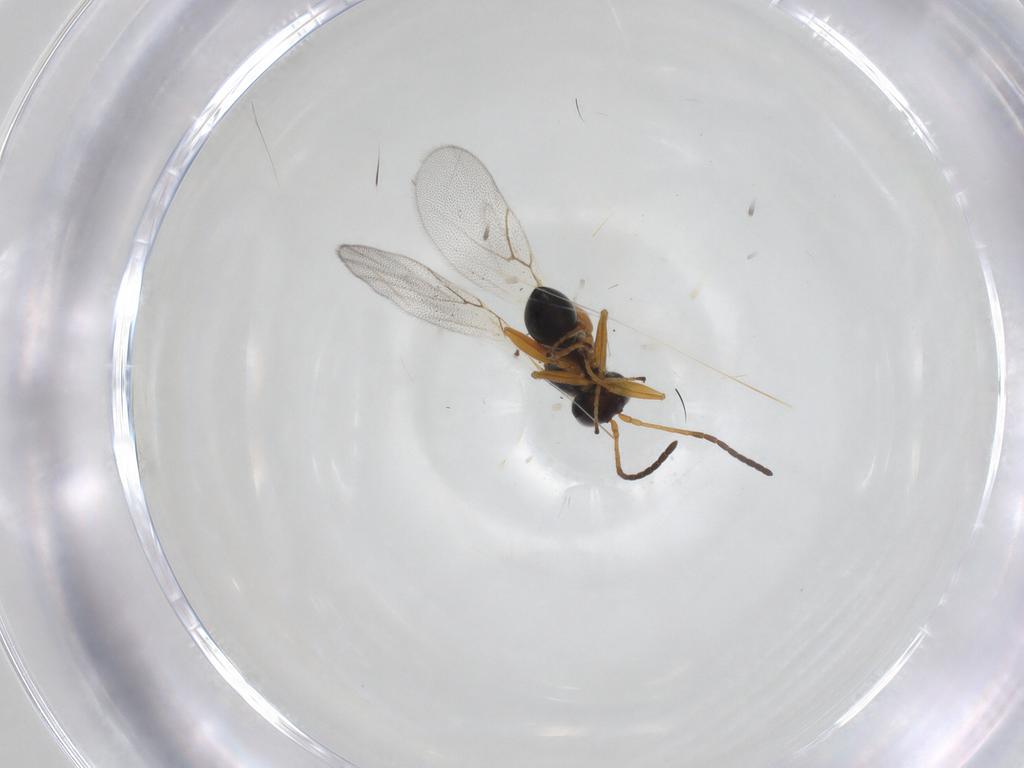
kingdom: Animalia
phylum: Arthropoda
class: Insecta
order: Hymenoptera
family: Figitidae
